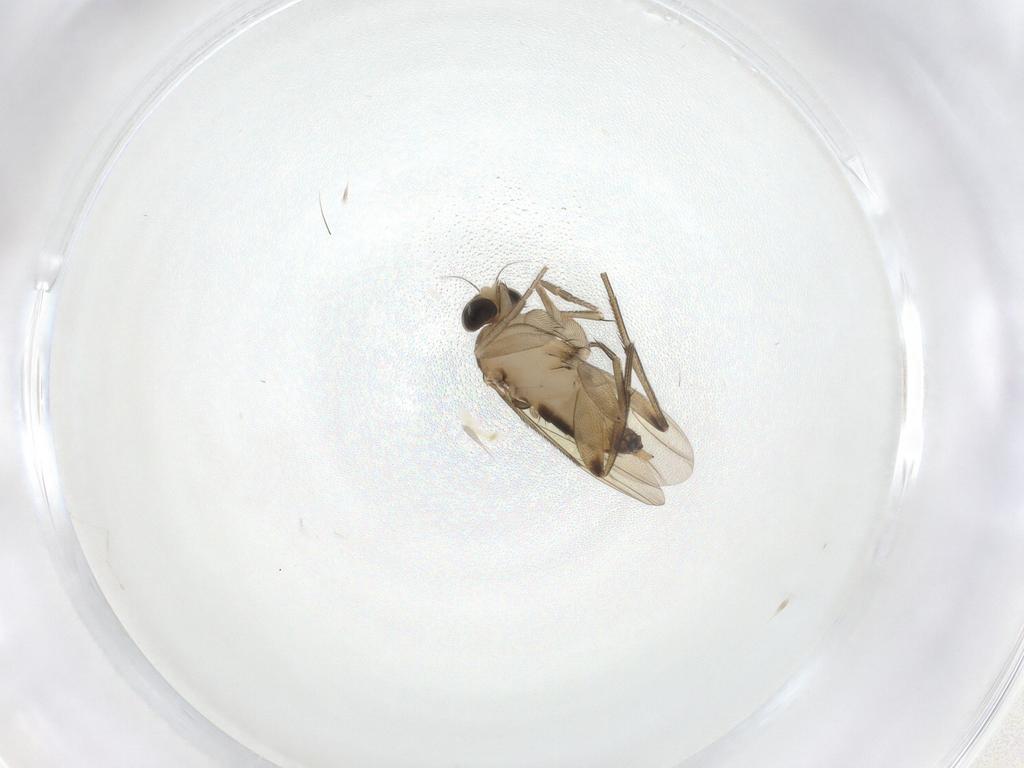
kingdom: Animalia
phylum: Arthropoda
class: Insecta
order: Diptera
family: Phoridae
